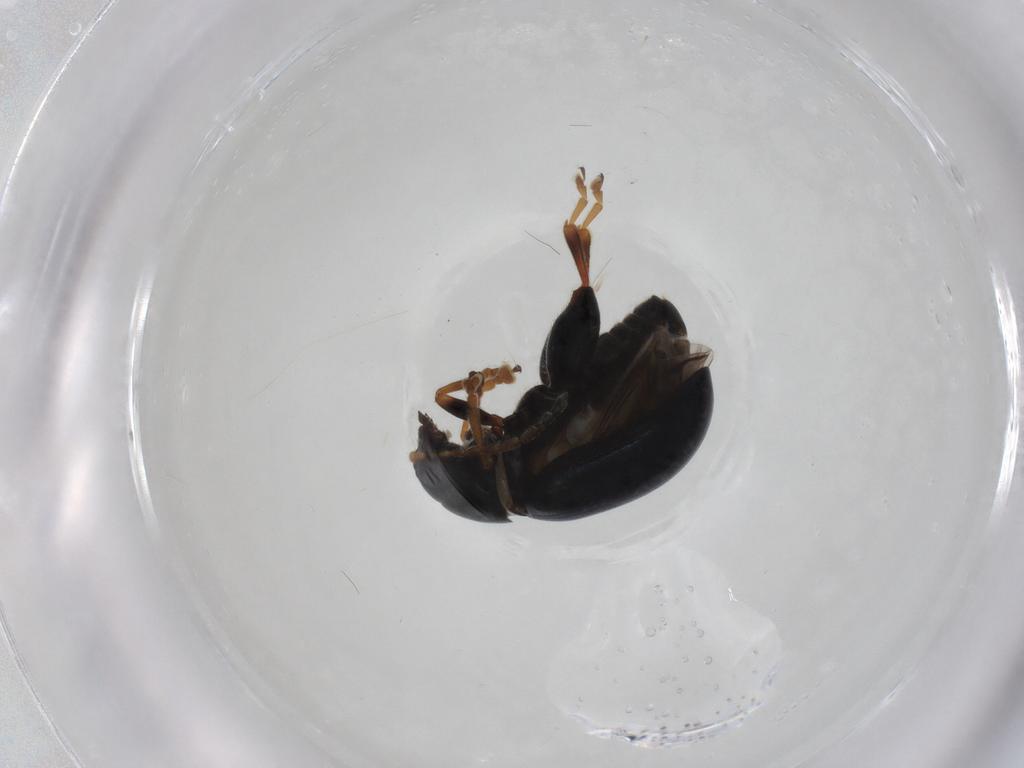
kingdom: Animalia
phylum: Arthropoda
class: Insecta
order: Coleoptera
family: Chrysomelidae
